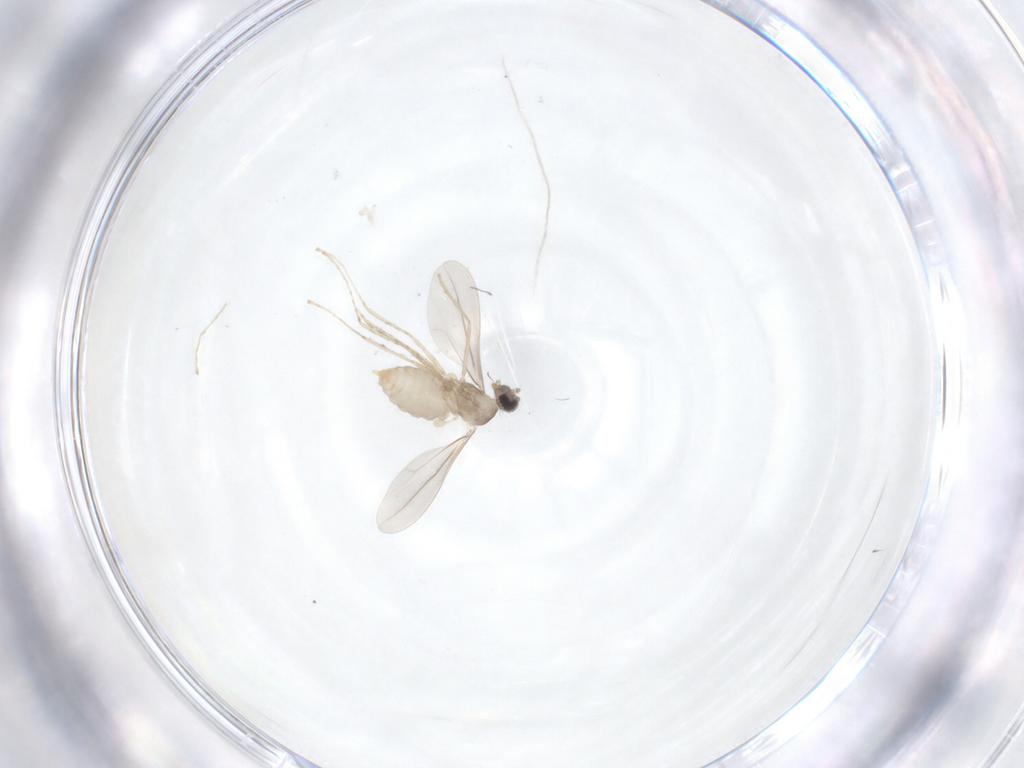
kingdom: Animalia
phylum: Arthropoda
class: Insecta
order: Diptera
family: Cecidomyiidae
